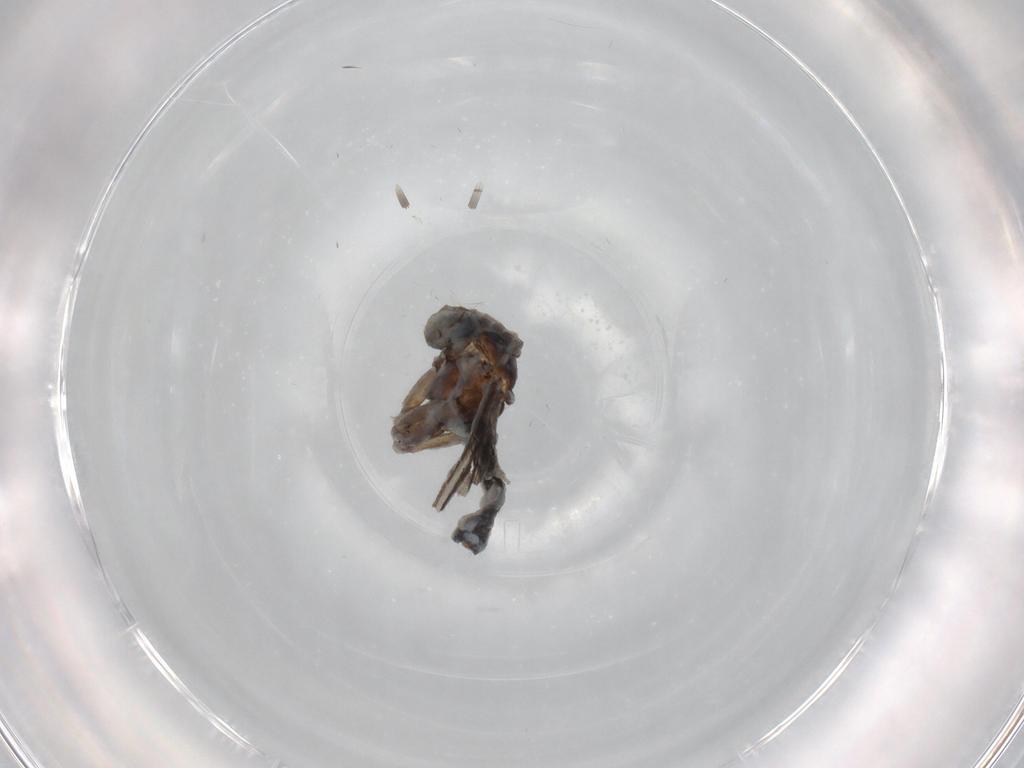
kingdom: Animalia
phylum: Arthropoda
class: Insecta
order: Diptera
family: Sciaridae
